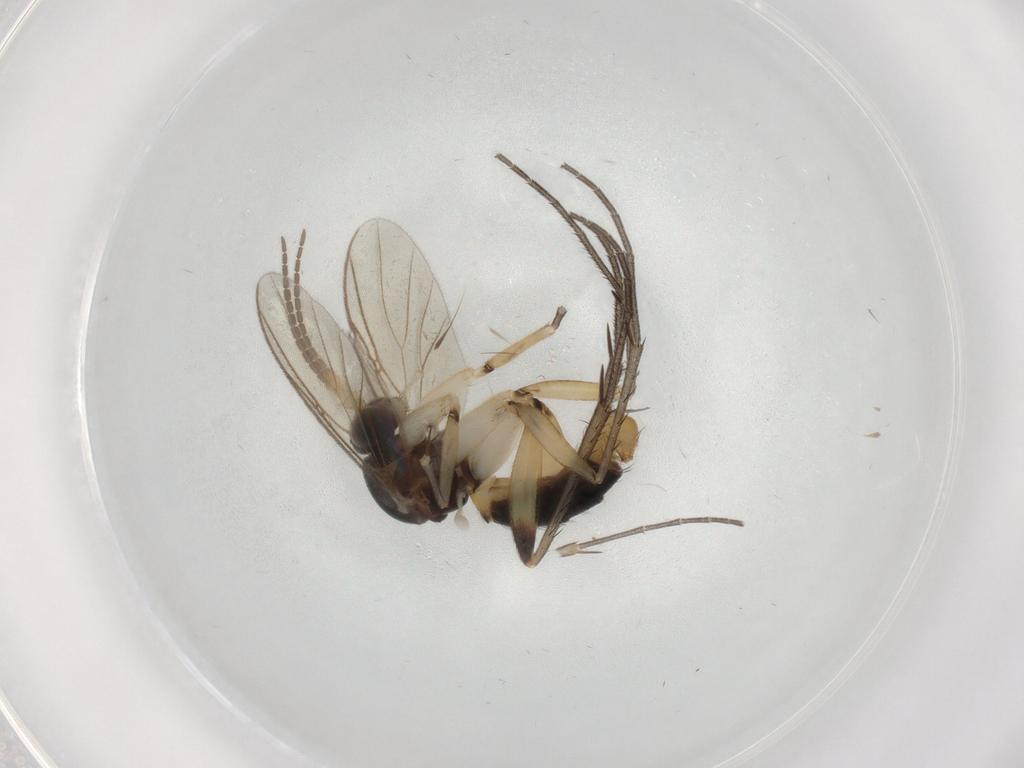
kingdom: Animalia
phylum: Arthropoda
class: Insecta
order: Diptera
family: Mycetophilidae
